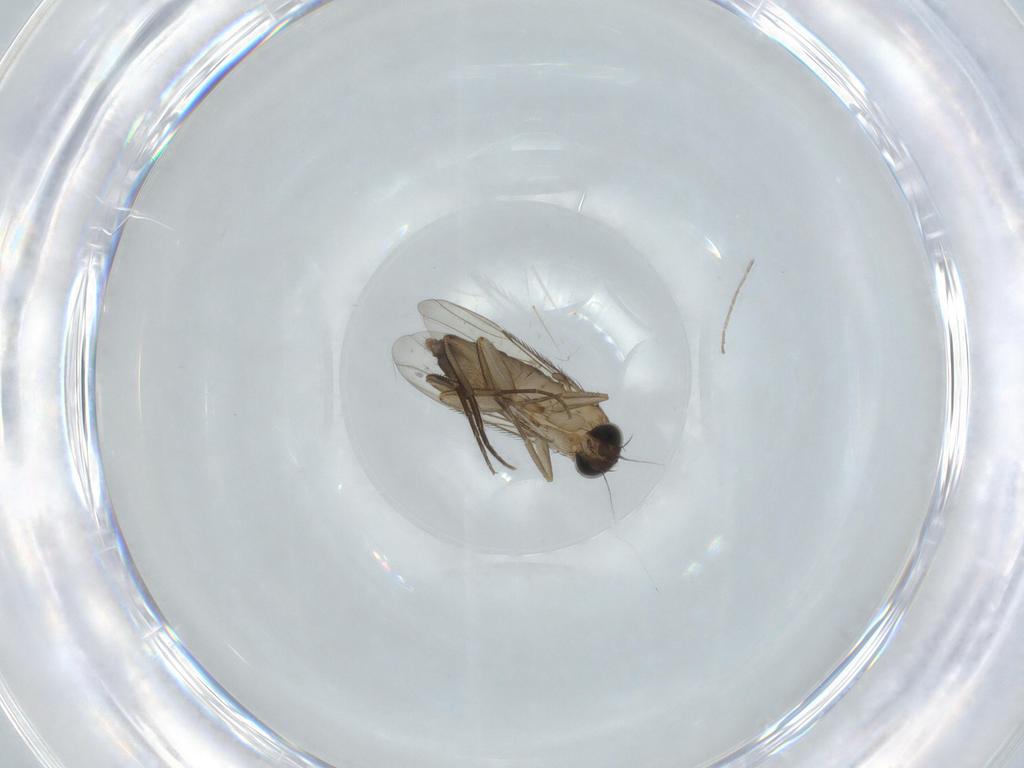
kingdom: Animalia
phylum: Arthropoda
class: Insecta
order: Diptera
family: Phoridae
